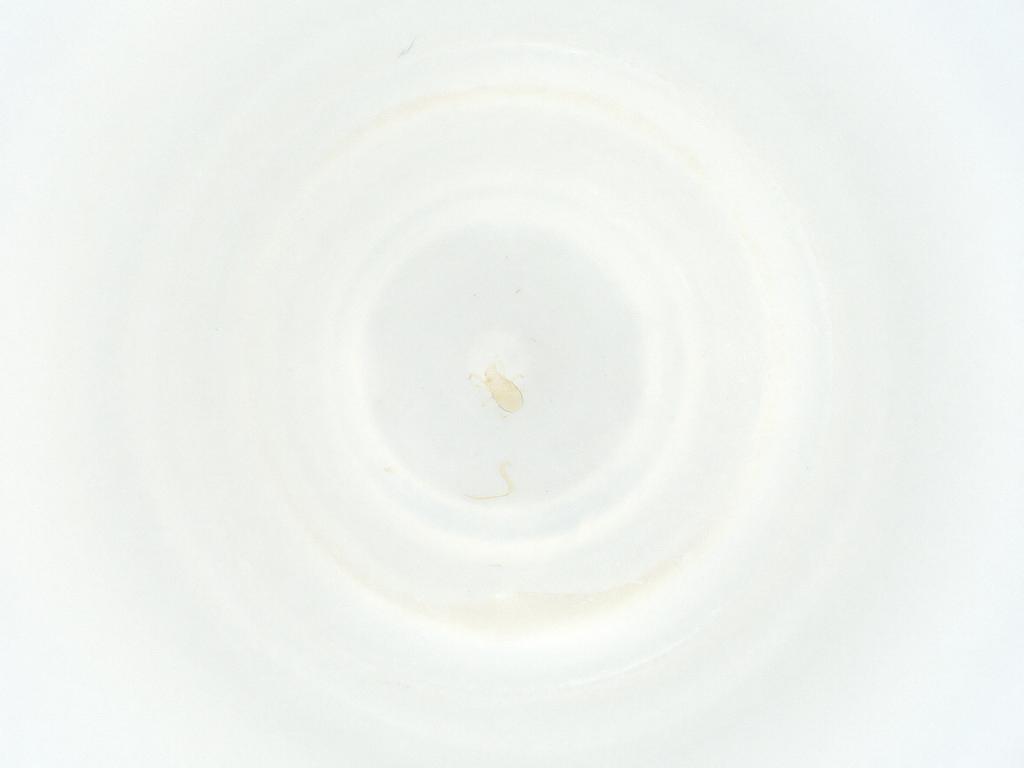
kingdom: Animalia
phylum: Arthropoda
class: Arachnida
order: Mesostigmata
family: Phytoseiidae
